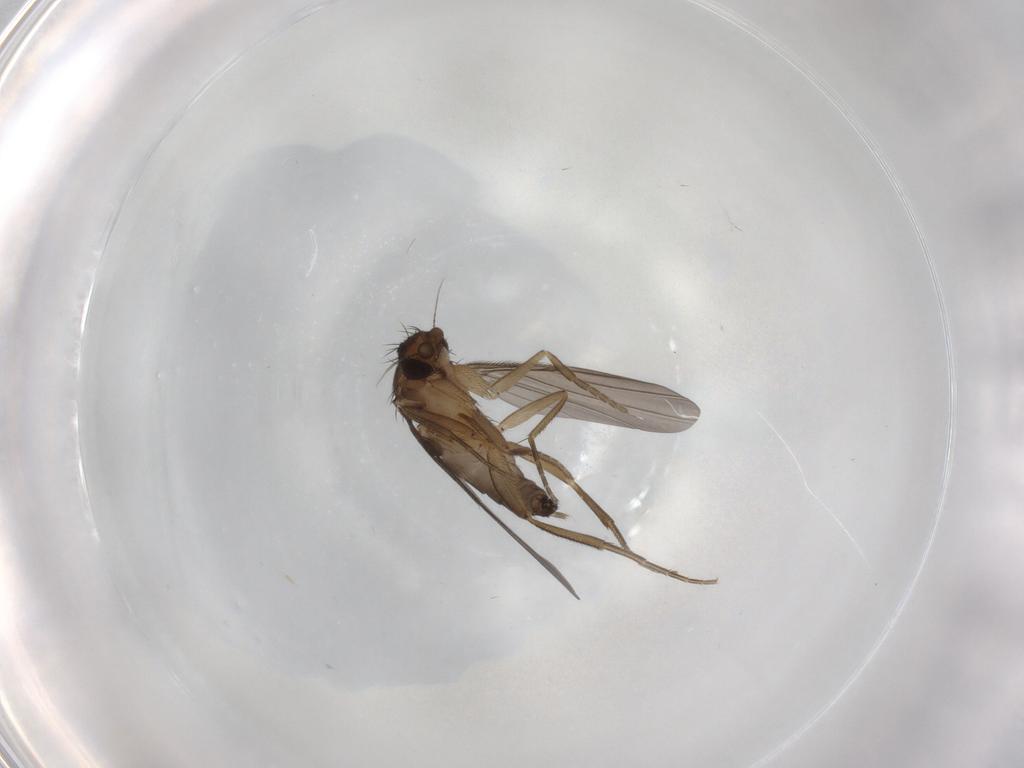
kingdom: Animalia
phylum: Arthropoda
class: Insecta
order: Diptera
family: Phoridae
